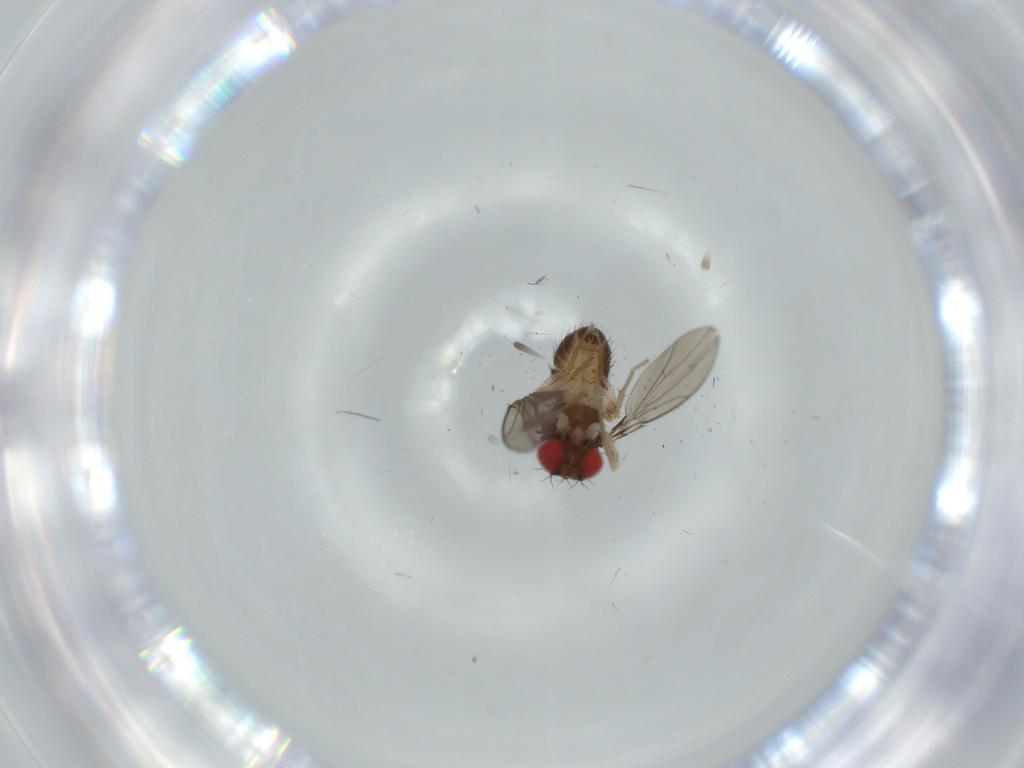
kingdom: Animalia
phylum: Arthropoda
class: Insecta
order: Diptera
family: Drosophilidae
